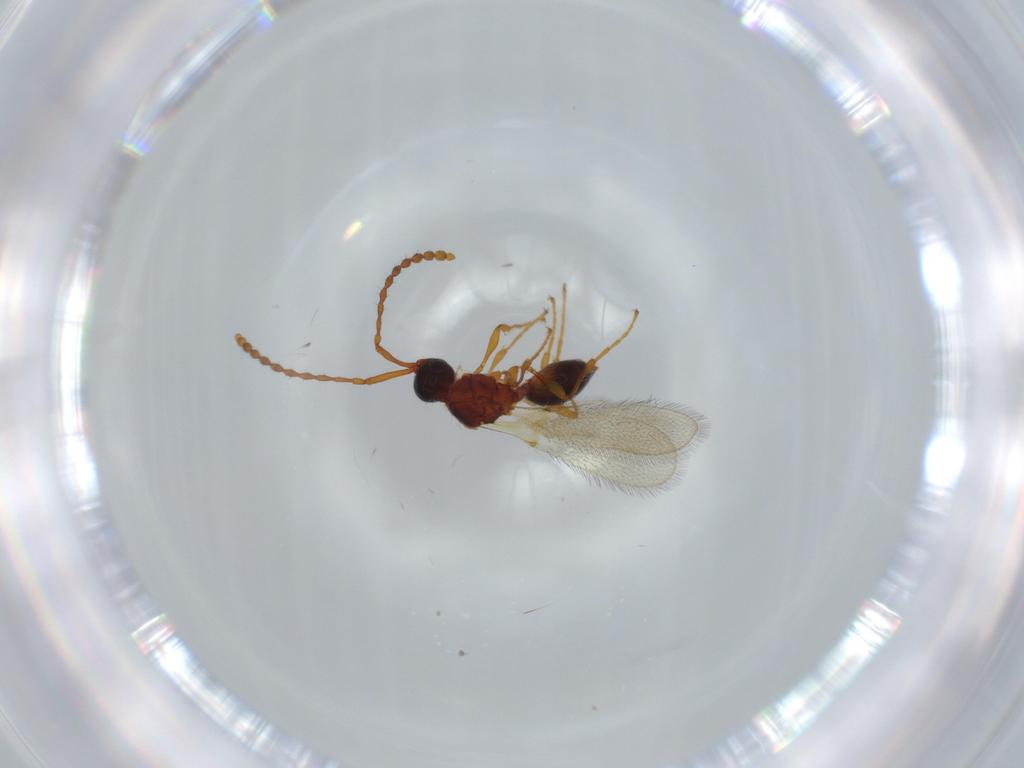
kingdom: Animalia
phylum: Arthropoda
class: Insecta
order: Hymenoptera
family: Diapriidae
